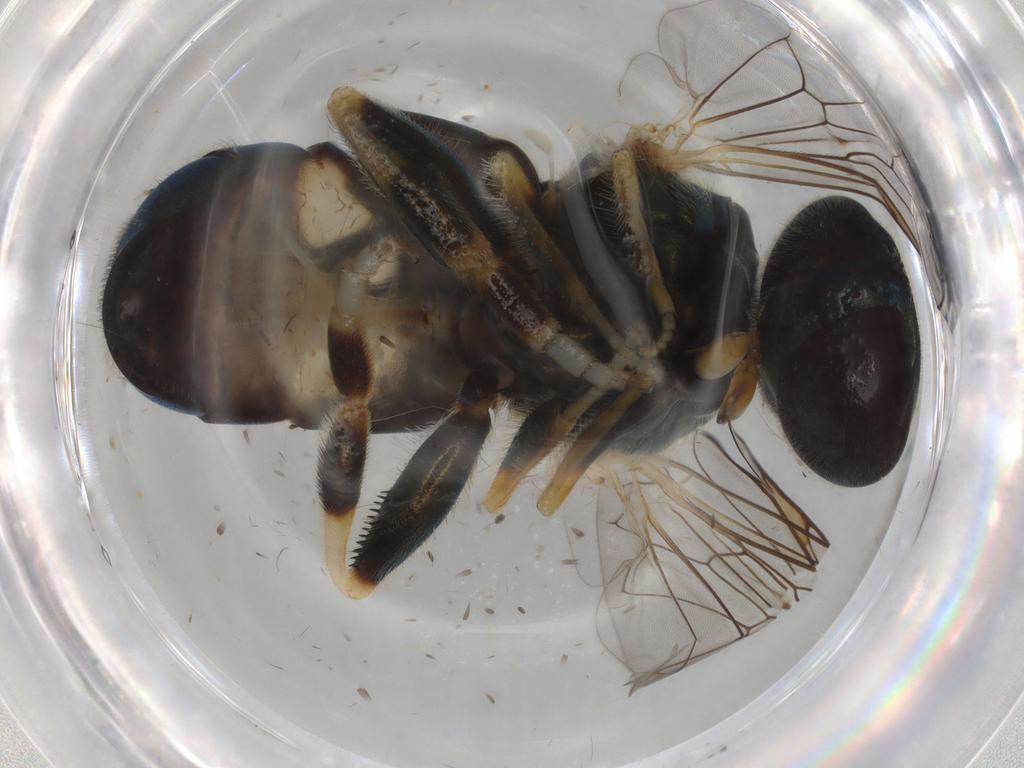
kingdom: Animalia
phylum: Arthropoda
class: Insecta
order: Diptera
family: Syrphidae
